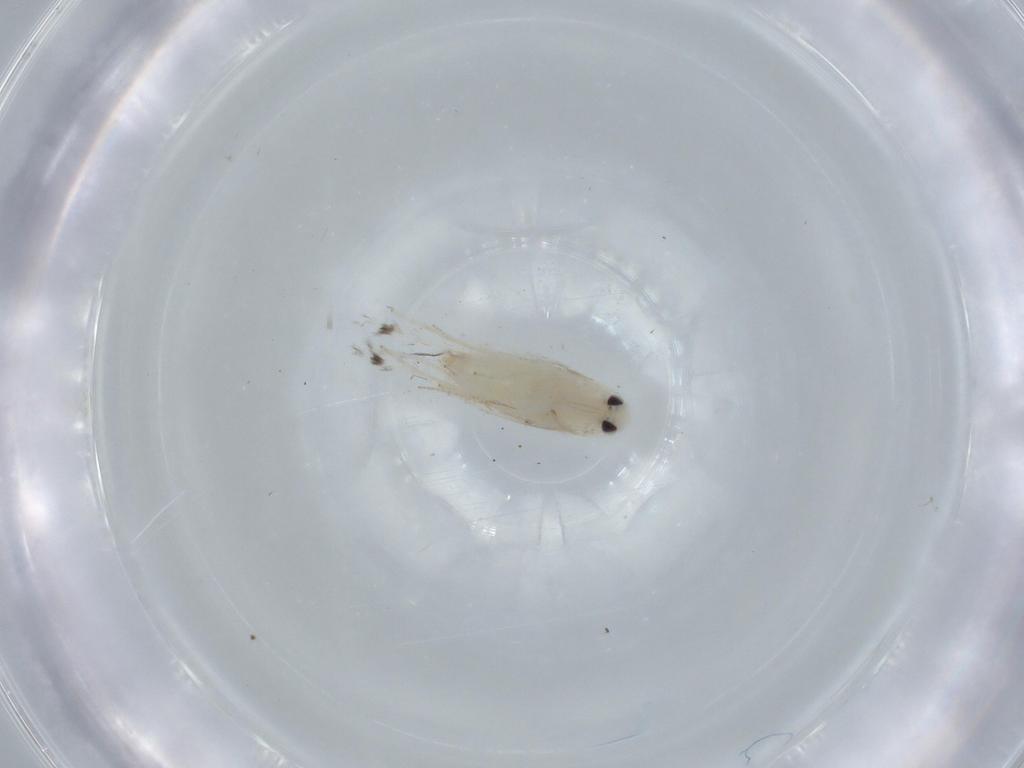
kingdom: Animalia
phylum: Arthropoda
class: Insecta
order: Lepidoptera
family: Gracillariidae
